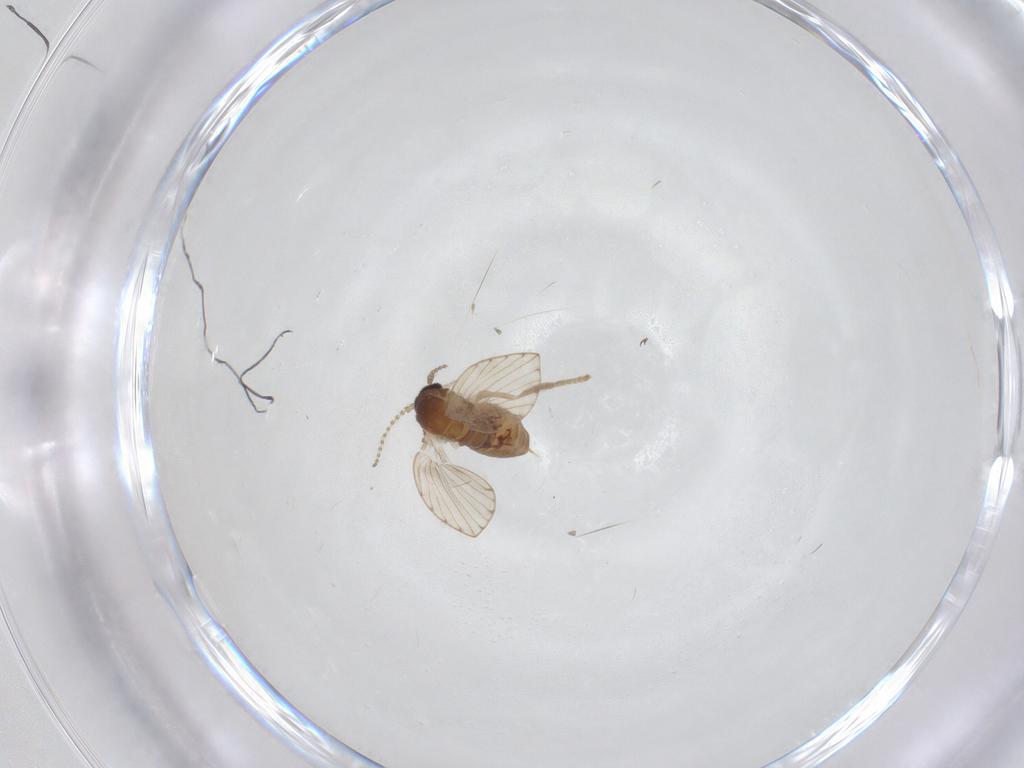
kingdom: Animalia
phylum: Arthropoda
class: Insecta
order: Diptera
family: Psychodidae
